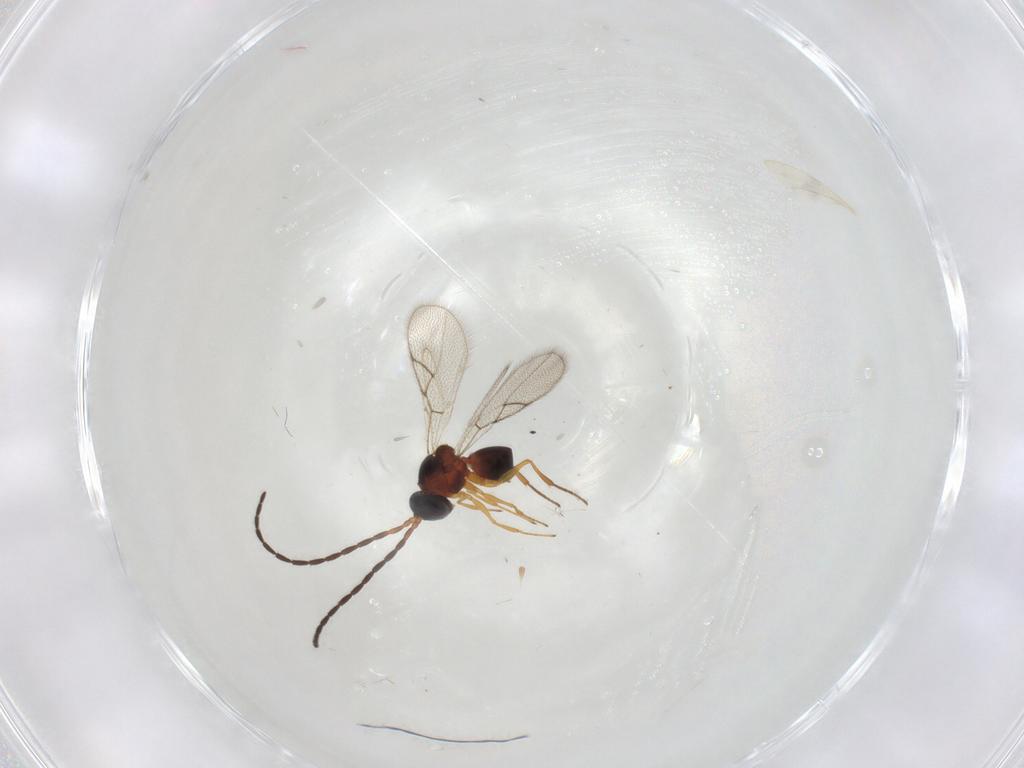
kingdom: Animalia
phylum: Arthropoda
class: Insecta
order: Hymenoptera
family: Figitidae
